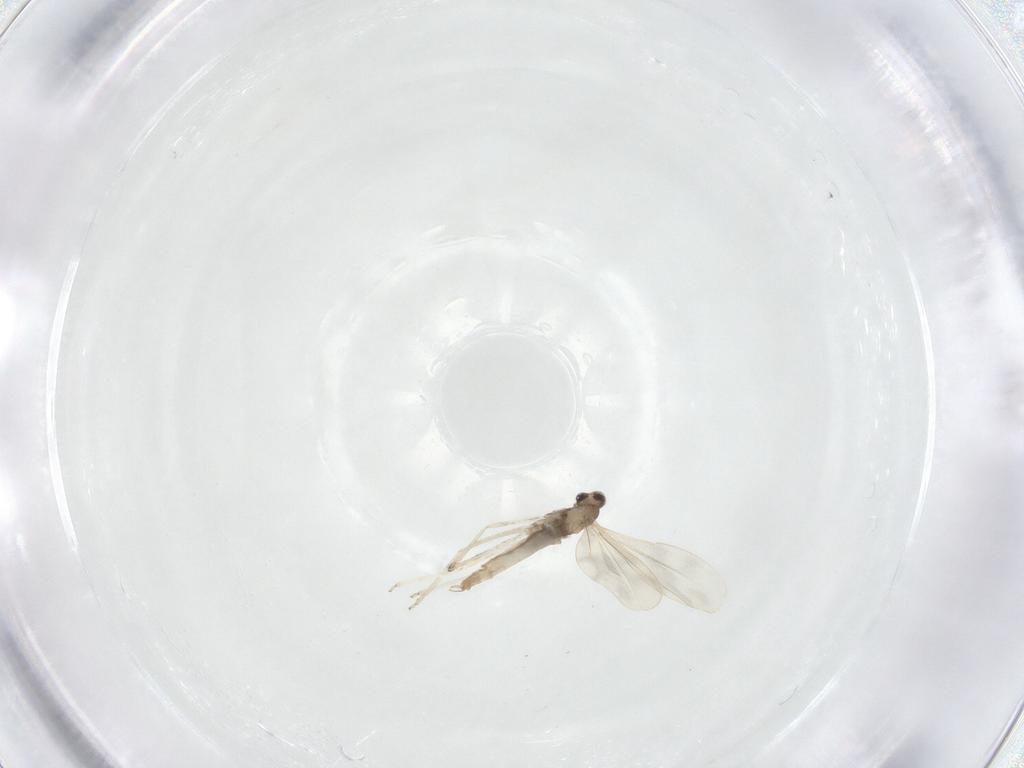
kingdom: Animalia
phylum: Arthropoda
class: Insecta
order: Diptera
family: Cecidomyiidae
